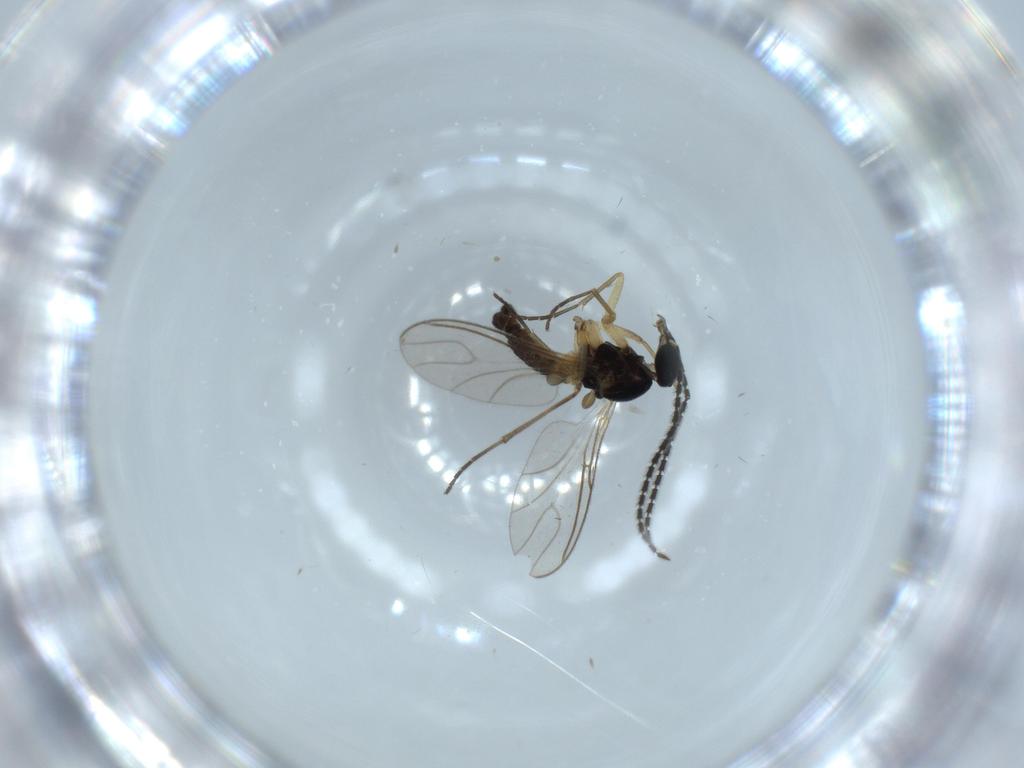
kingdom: Animalia
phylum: Arthropoda
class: Insecta
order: Diptera
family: Sciaridae
